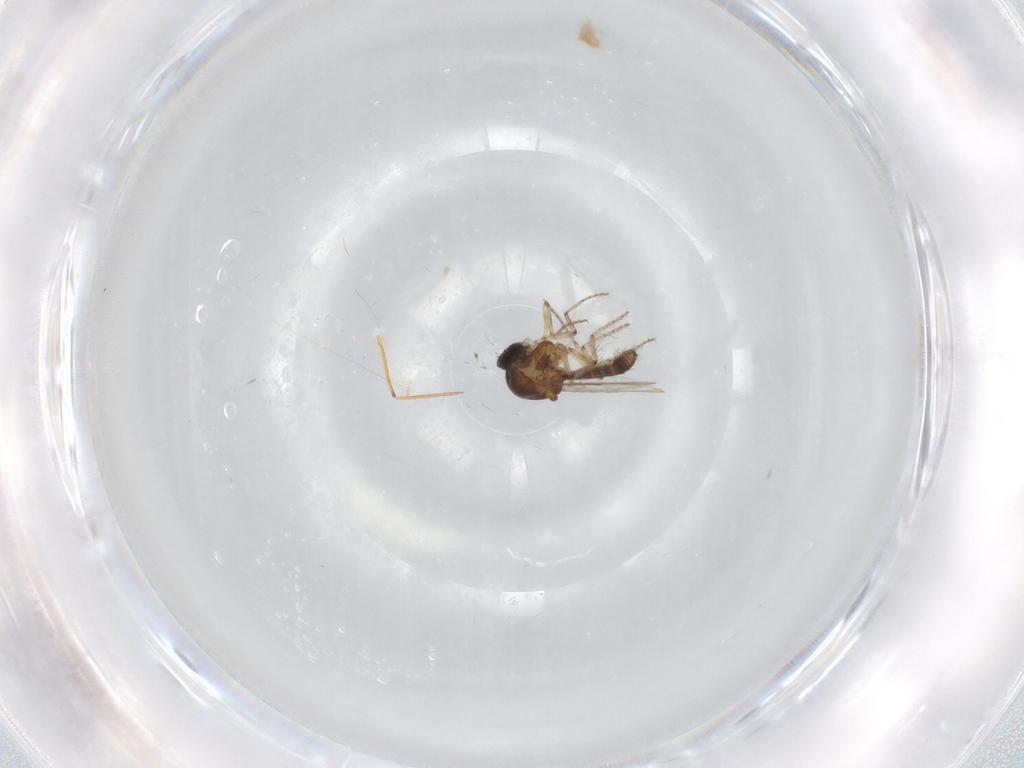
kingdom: Animalia
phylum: Arthropoda
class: Insecta
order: Diptera
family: Ceratopogonidae
